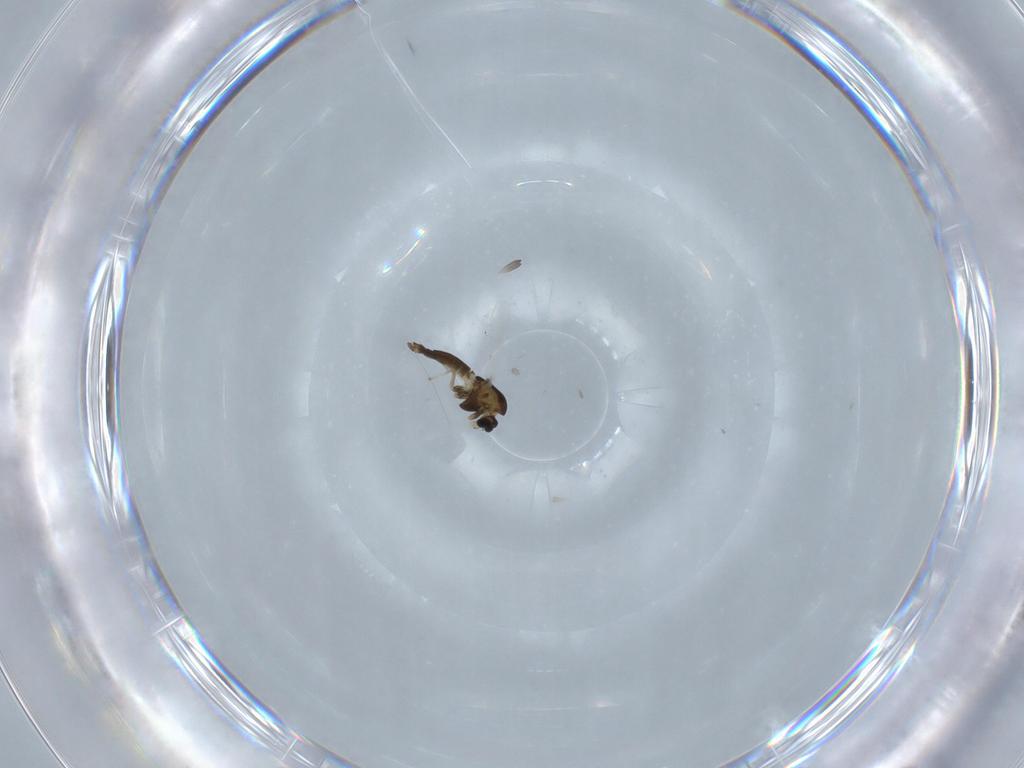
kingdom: Animalia
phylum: Arthropoda
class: Insecta
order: Diptera
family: Chironomidae
